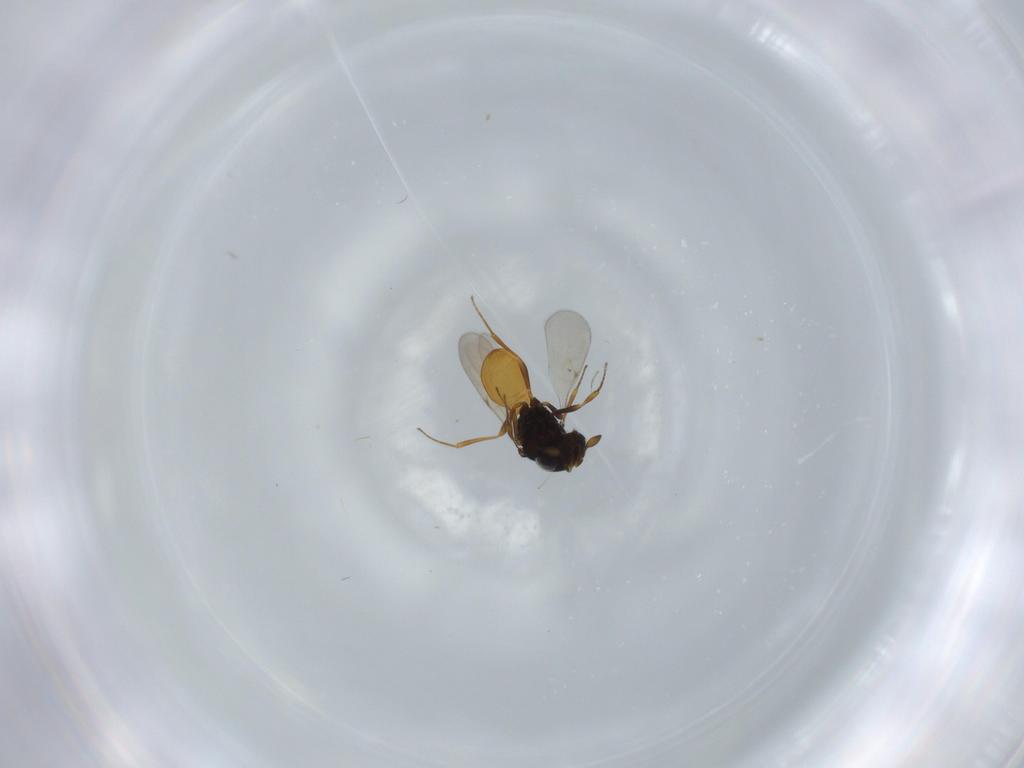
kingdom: Animalia
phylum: Arthropoda
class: Insecta
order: Hymenoptera
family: Scelionidae
